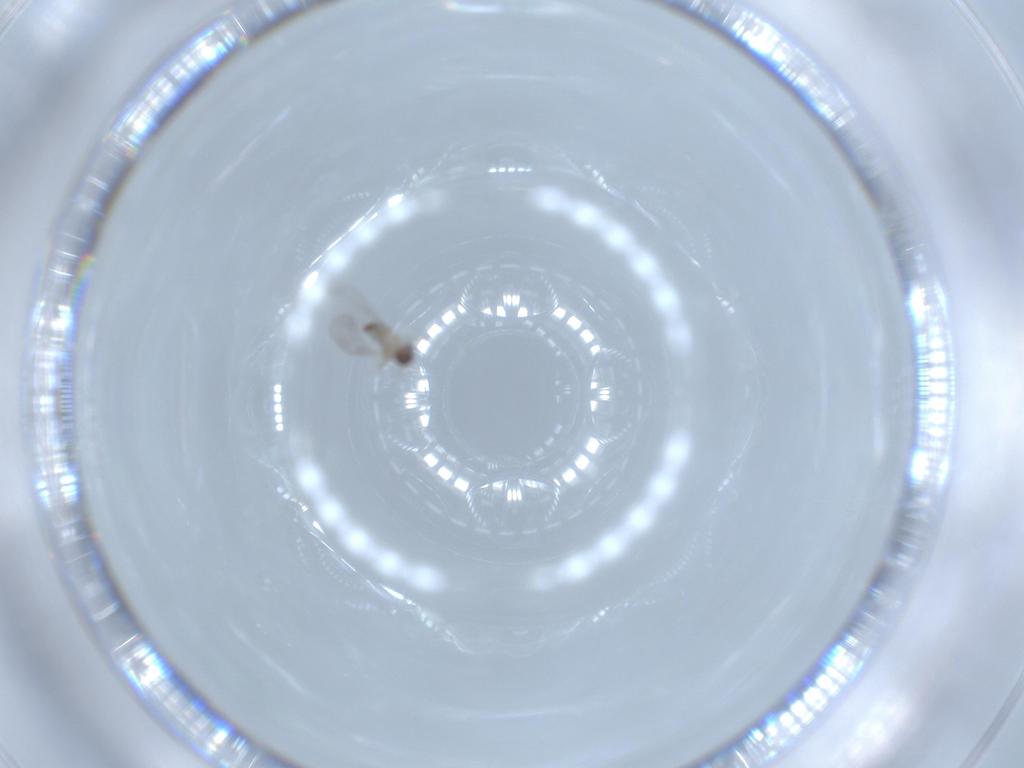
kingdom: Animalia
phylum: Arthropoda
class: Insecta
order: Diptera
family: Cecidomyiidae
